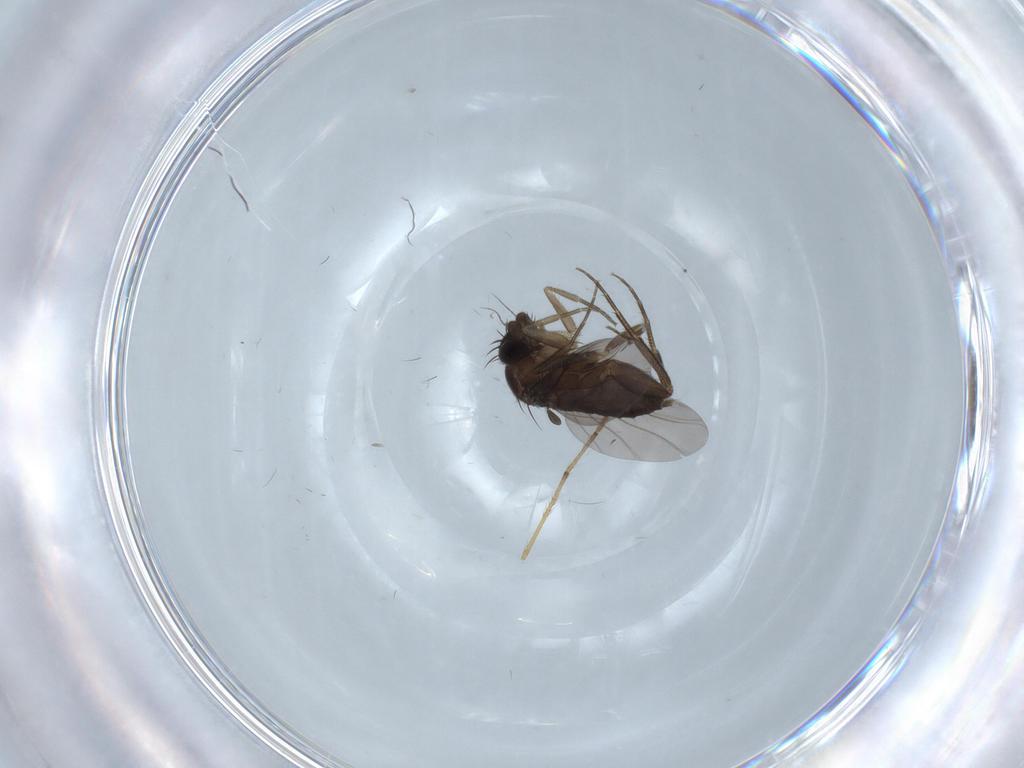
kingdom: Animalia
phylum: Arthropoda
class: Insecta
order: Diptera
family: Phoridae
